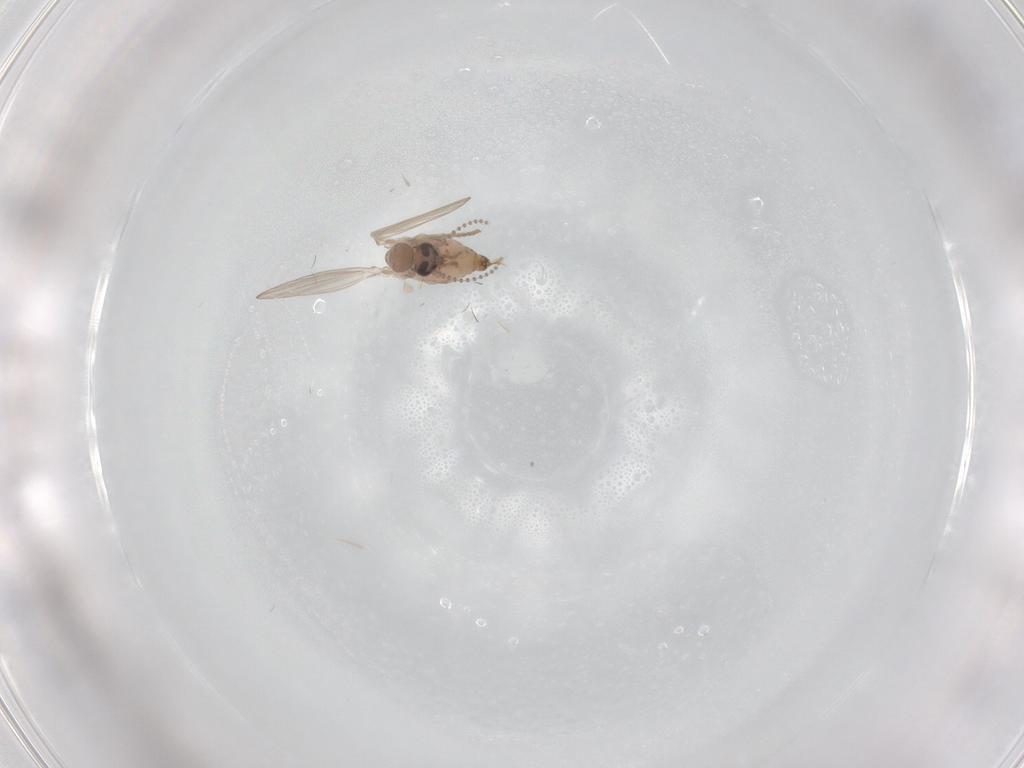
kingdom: Animalia
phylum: Arthropoda
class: Insecta
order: Diptera
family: Psychodidae
